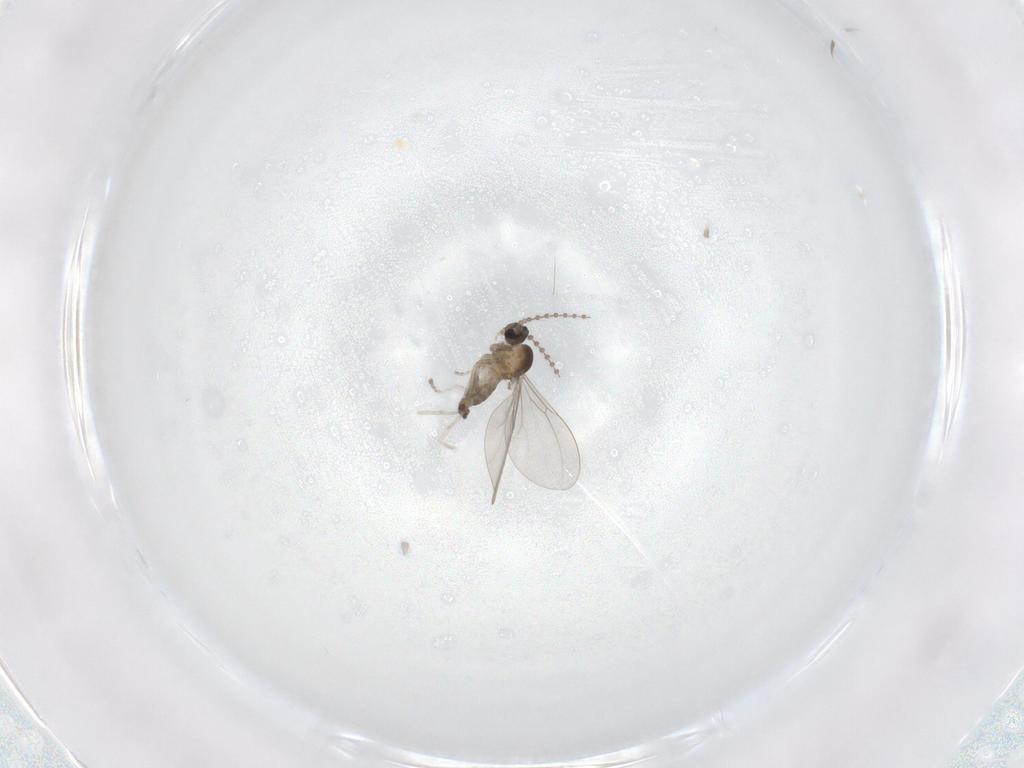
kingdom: Animalia
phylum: Arthropoda
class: Insecta
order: Diptera
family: Cecidomyiidae
